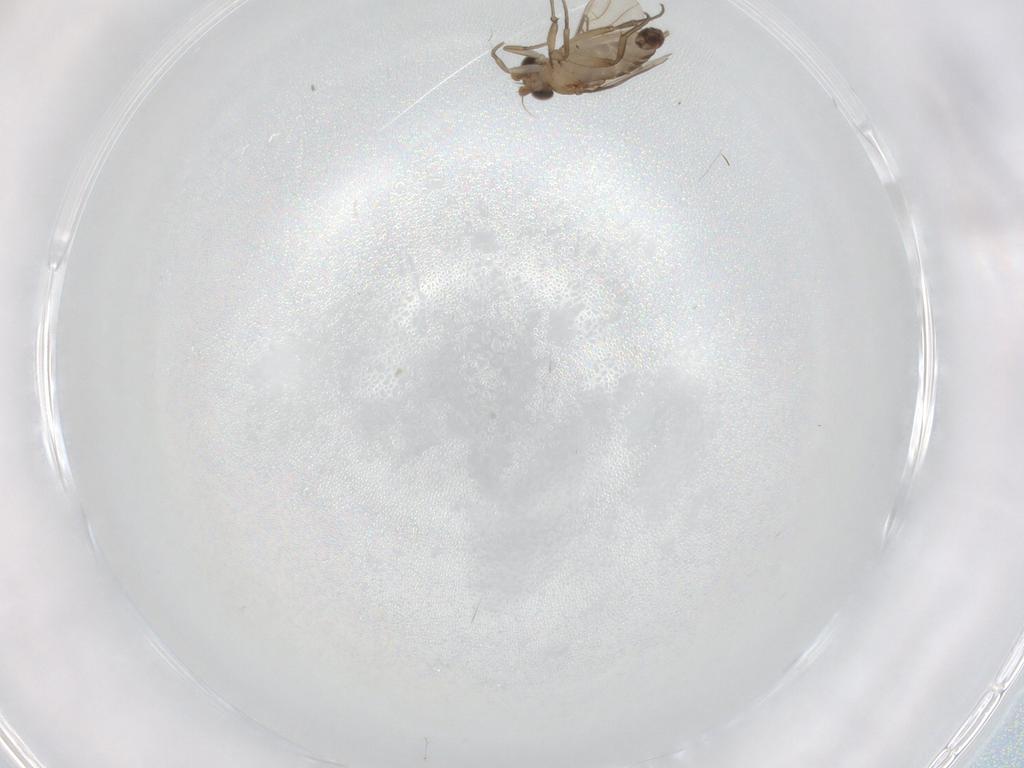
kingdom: Animalia
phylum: Arthropoda
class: Insecta
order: Diptera
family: Phoridae
